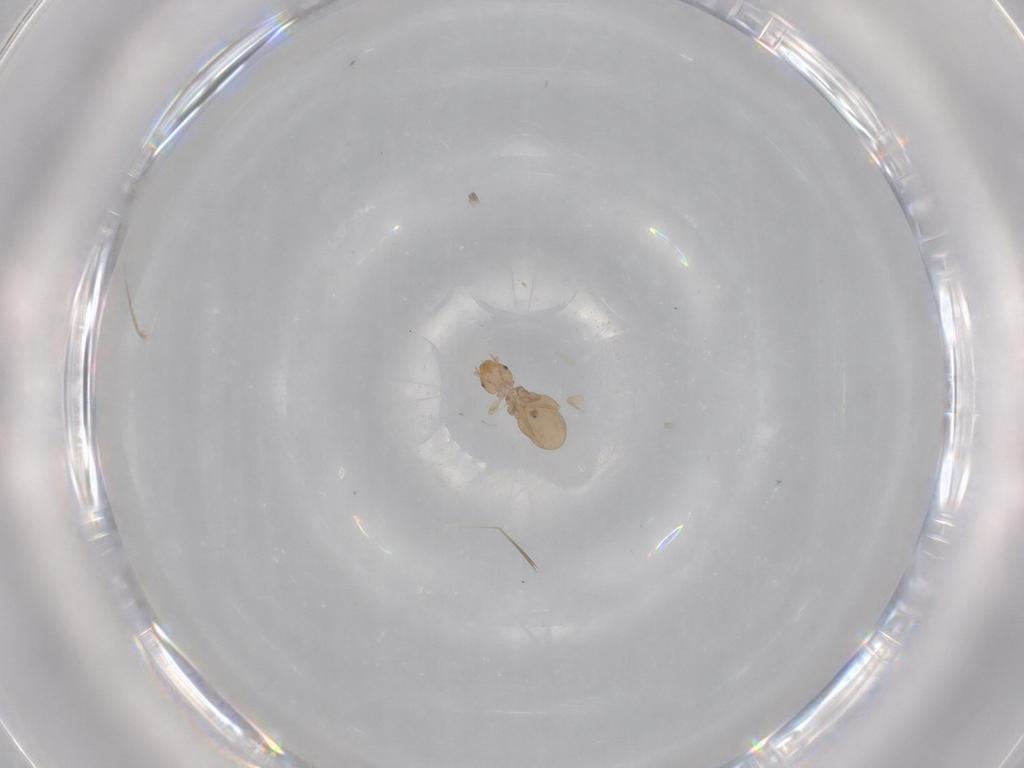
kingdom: Animalia
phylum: Arthropoda
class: Insecta
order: Psocodea
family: Liposcelididae
